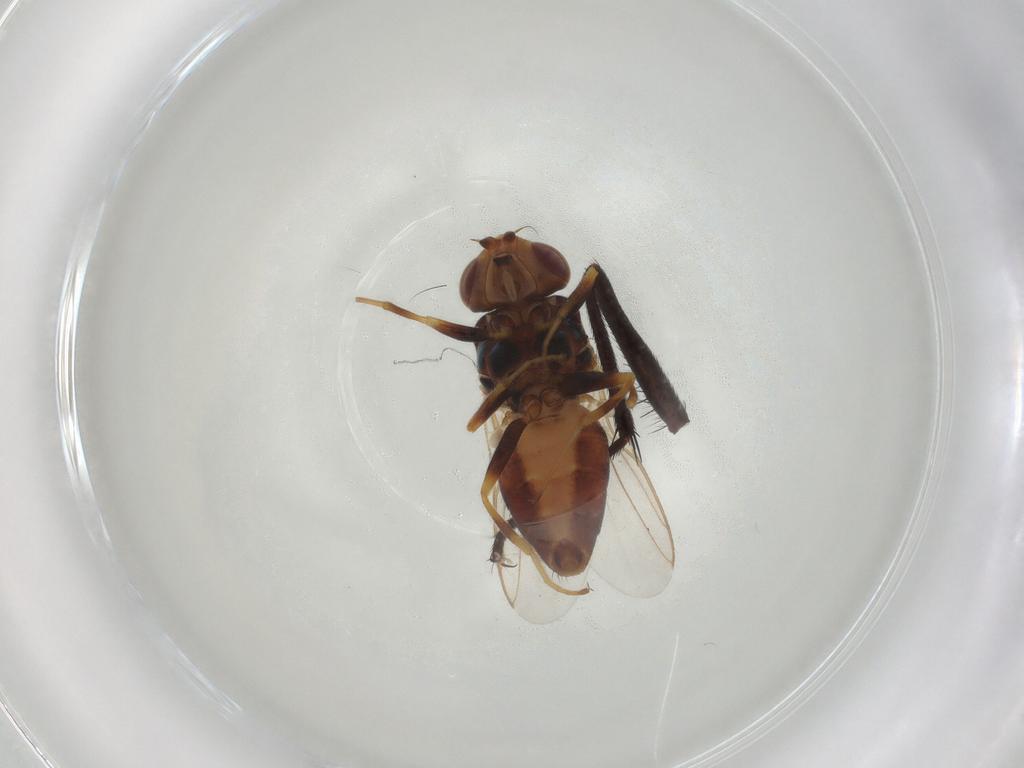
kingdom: Animalia
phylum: Arthropoda
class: Insecta
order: Diptera
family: Chloropidae
